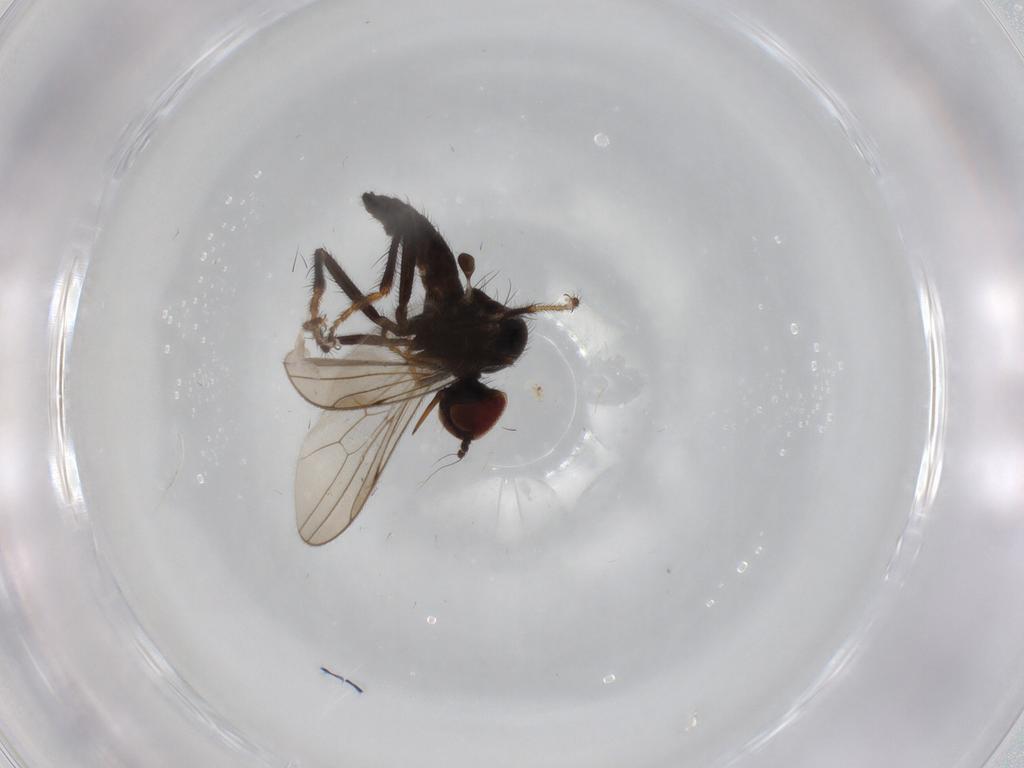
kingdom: Animalia
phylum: Arthropoda
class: Insecta
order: Diptera
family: Hybotidae
